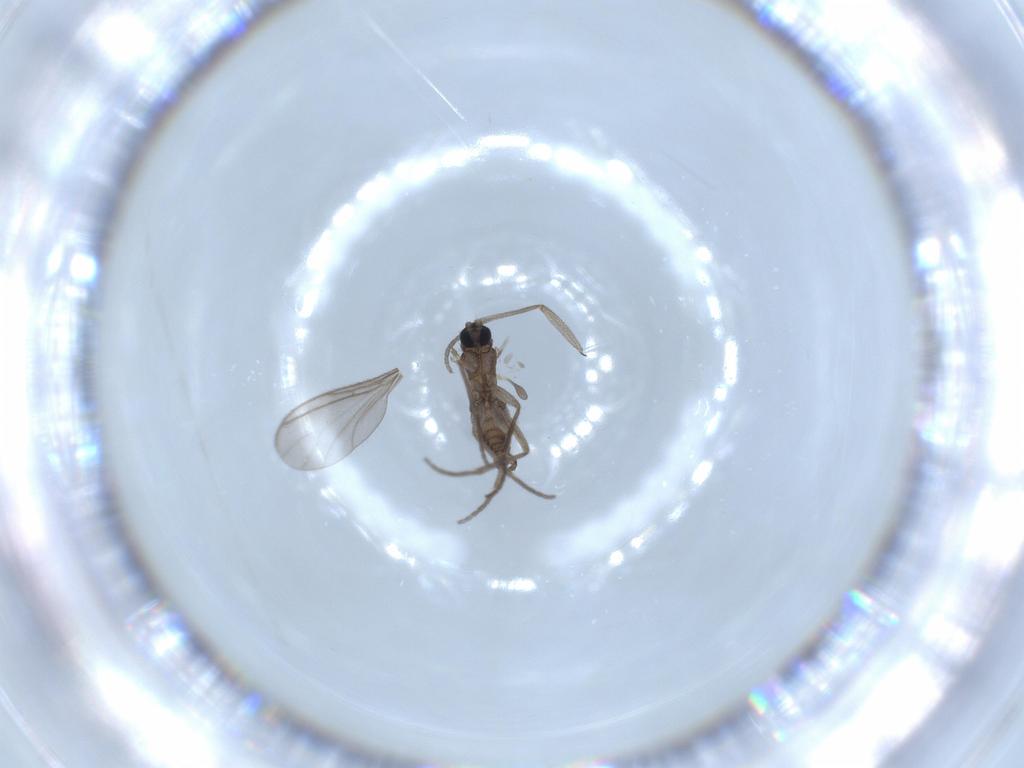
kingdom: Animalia
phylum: Arthropoda
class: Insecta
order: Diptera
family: Sciaridae
